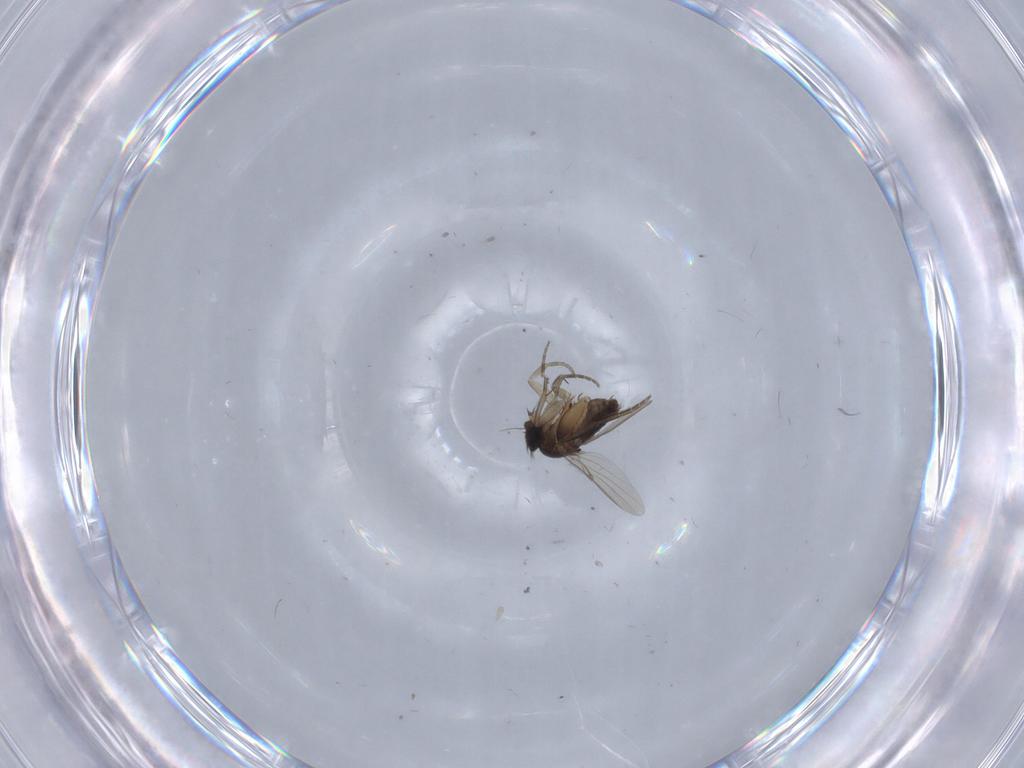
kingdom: Animalia
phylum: Arthropoda
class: Insecta
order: Diptera
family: Phoridae
